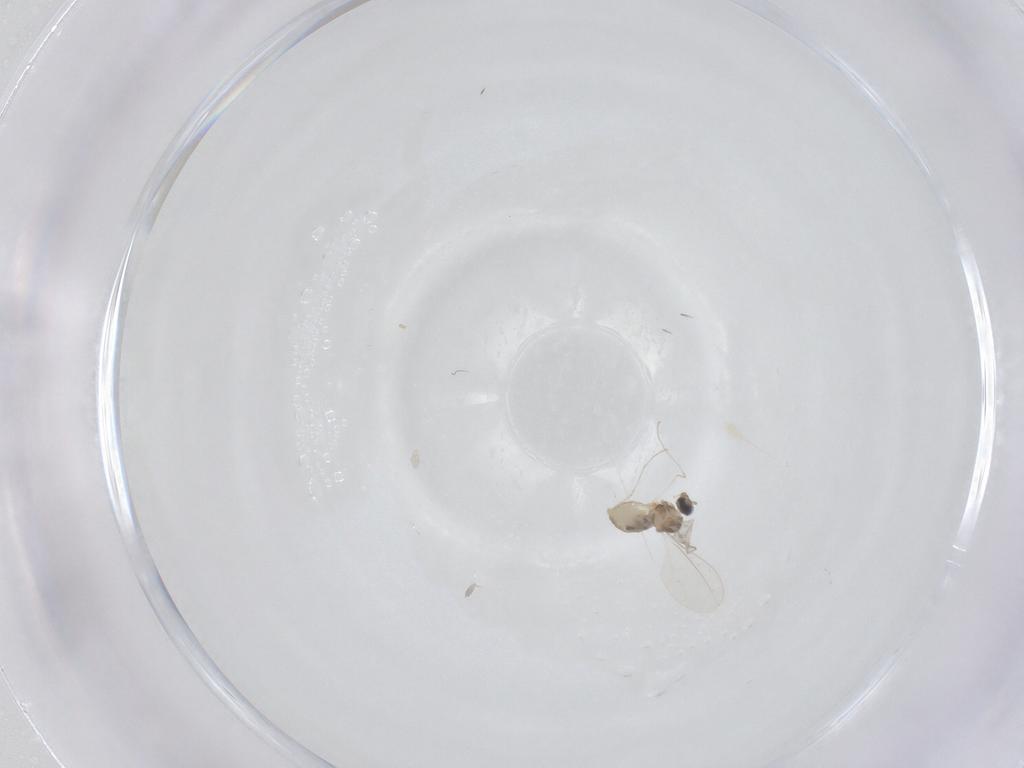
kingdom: Animalia
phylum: Arthropoda
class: Insecta
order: Diptera
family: Cecidomyiidae
